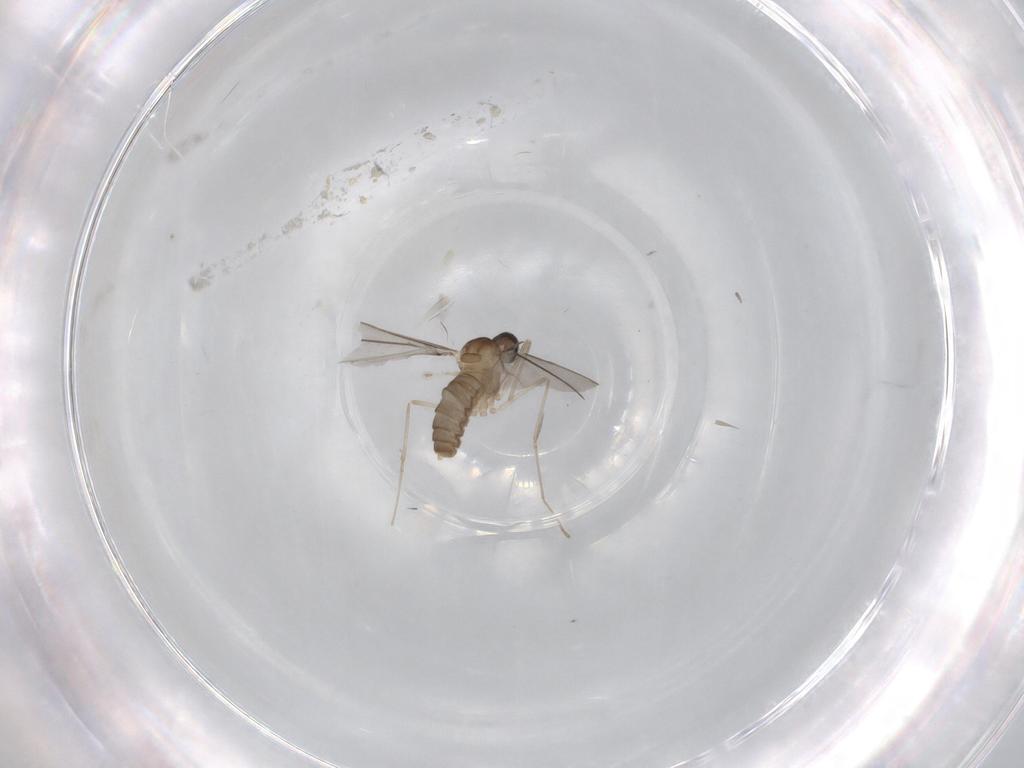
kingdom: Animalia
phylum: Arthropoda
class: Insecta
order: Diptera
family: Cecidomyiidae
